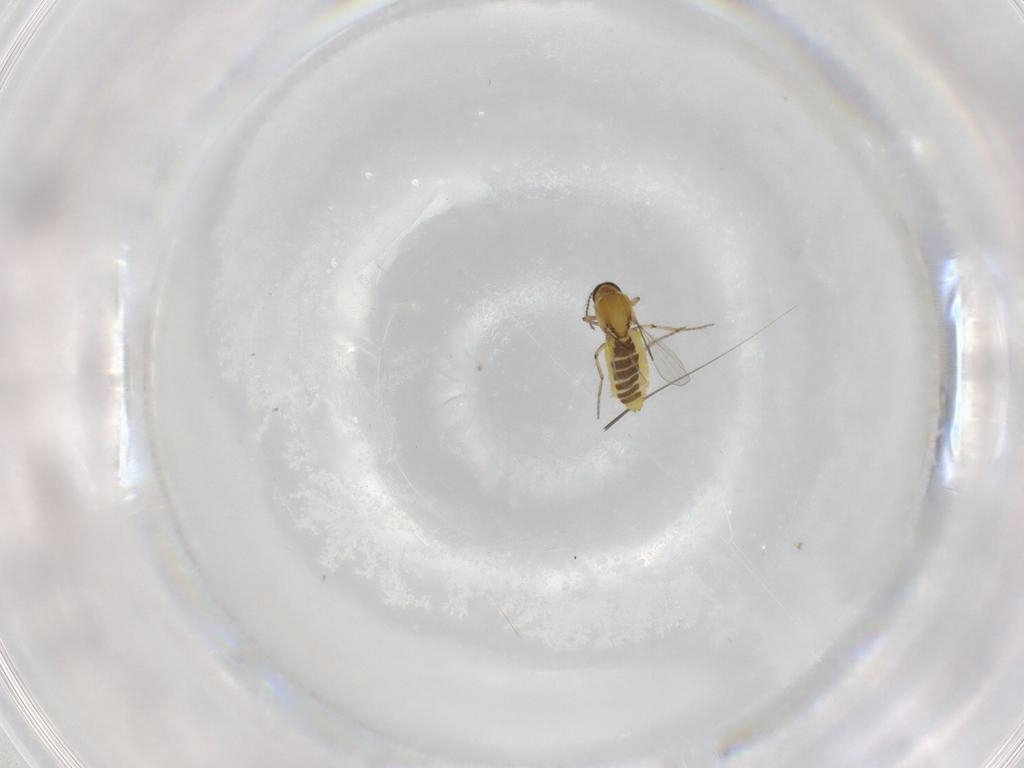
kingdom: Animalia
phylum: Arthropoda
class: Insecta
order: Diptera
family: Ceratopogonidae
